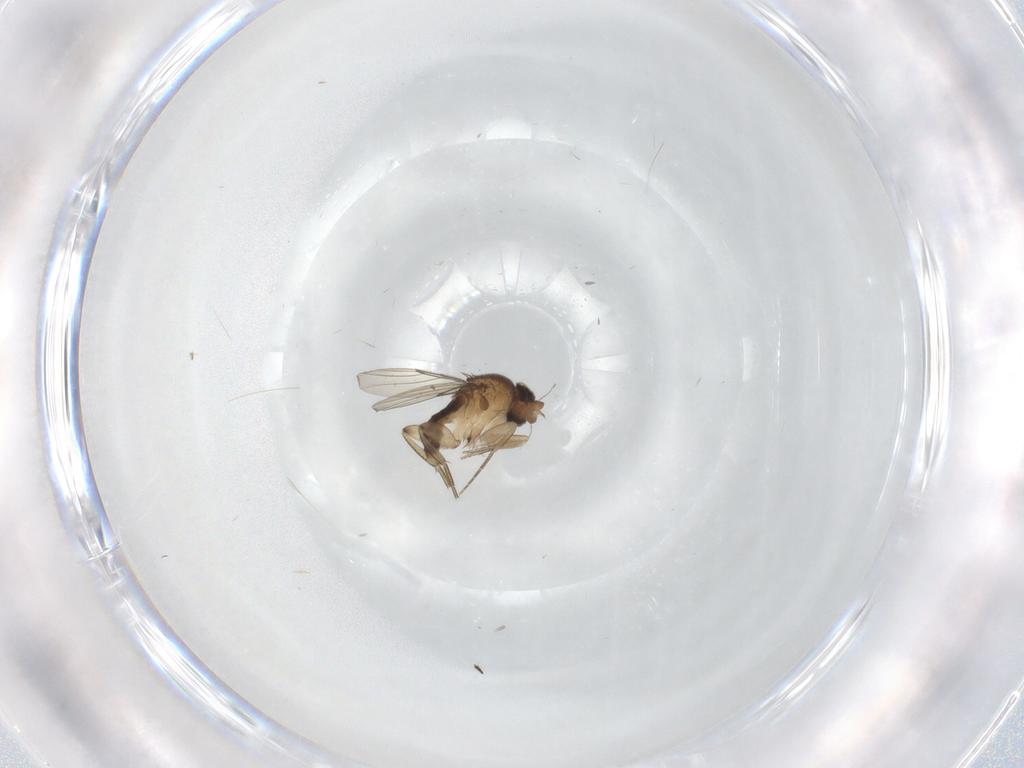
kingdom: Animalia
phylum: Arthropoda
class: Insecta
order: Diptera
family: Phoridae
